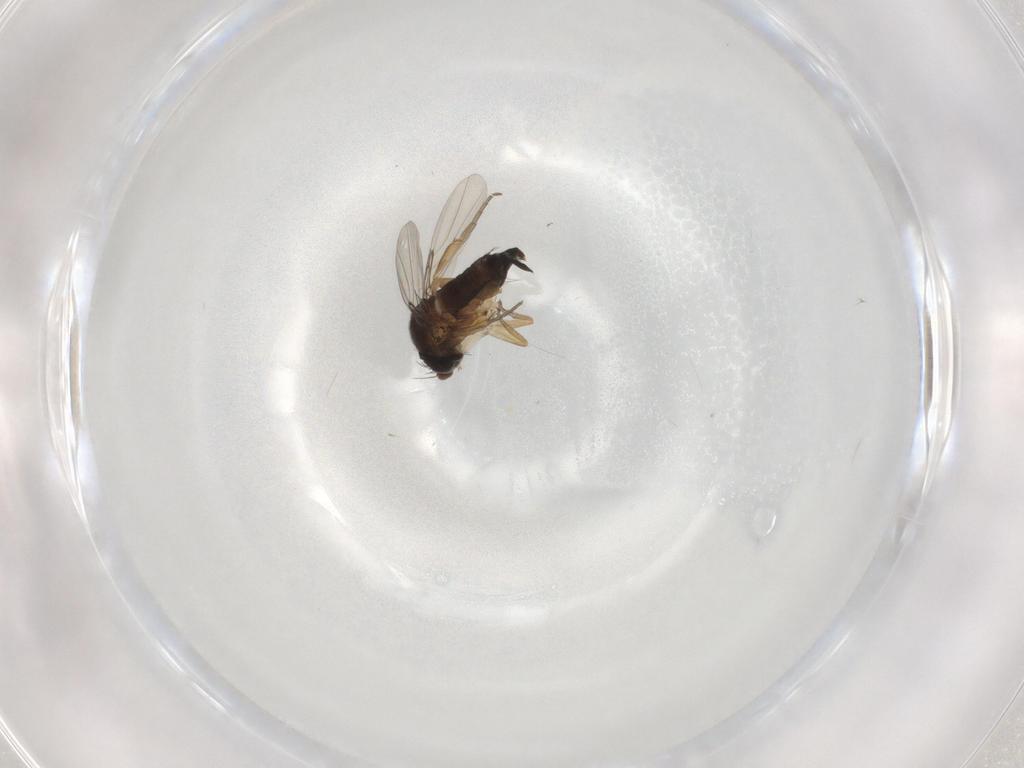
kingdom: Animalia
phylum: Arthropoda
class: Insecta
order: Diptera
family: Phoridae
